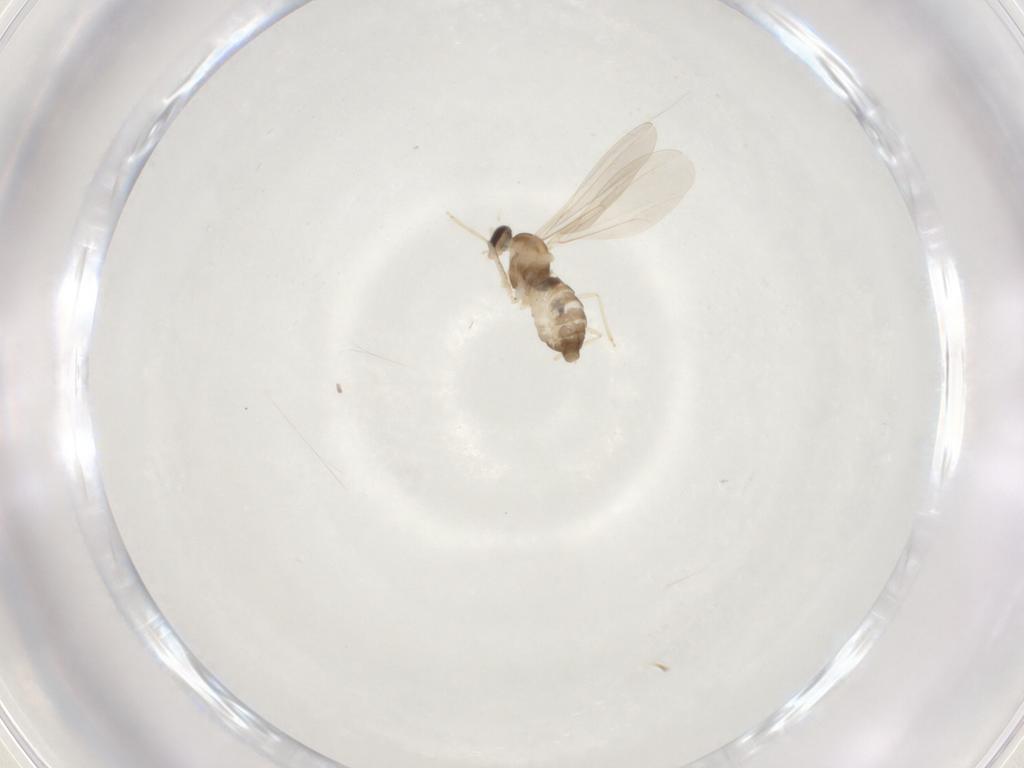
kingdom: Animalia
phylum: Arthropoda
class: Insecta
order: Diptera
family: Cecidomyiidae
